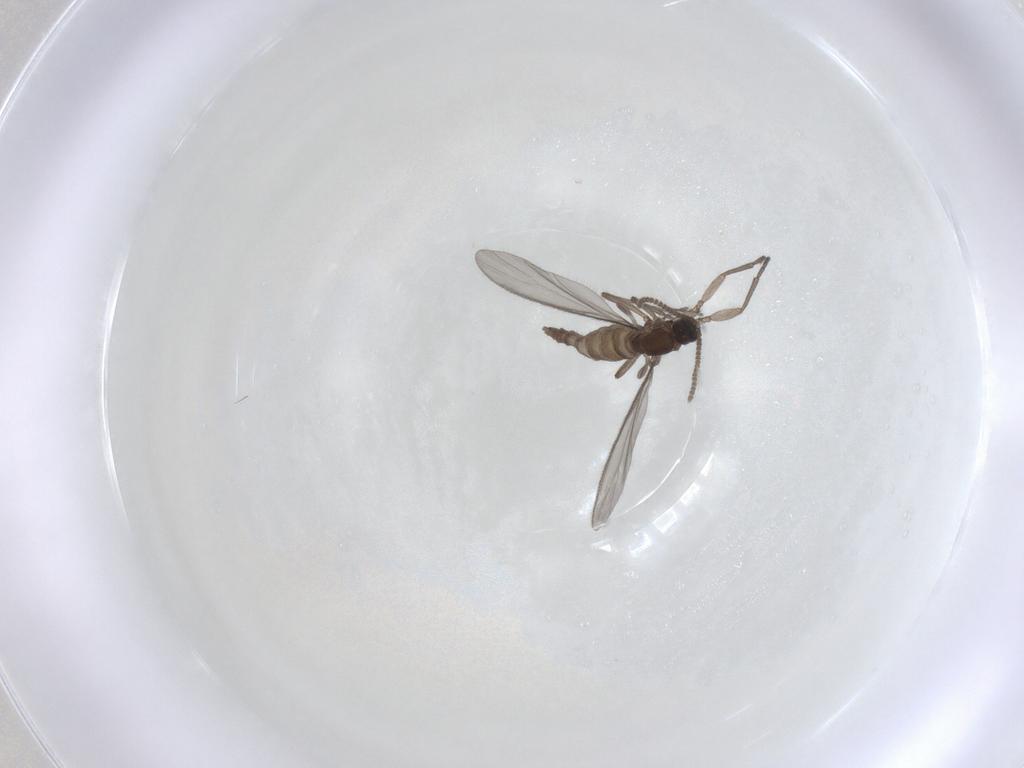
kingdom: Animalia
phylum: Arthropoda
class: Insecta
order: Diptera
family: Sciaridae
